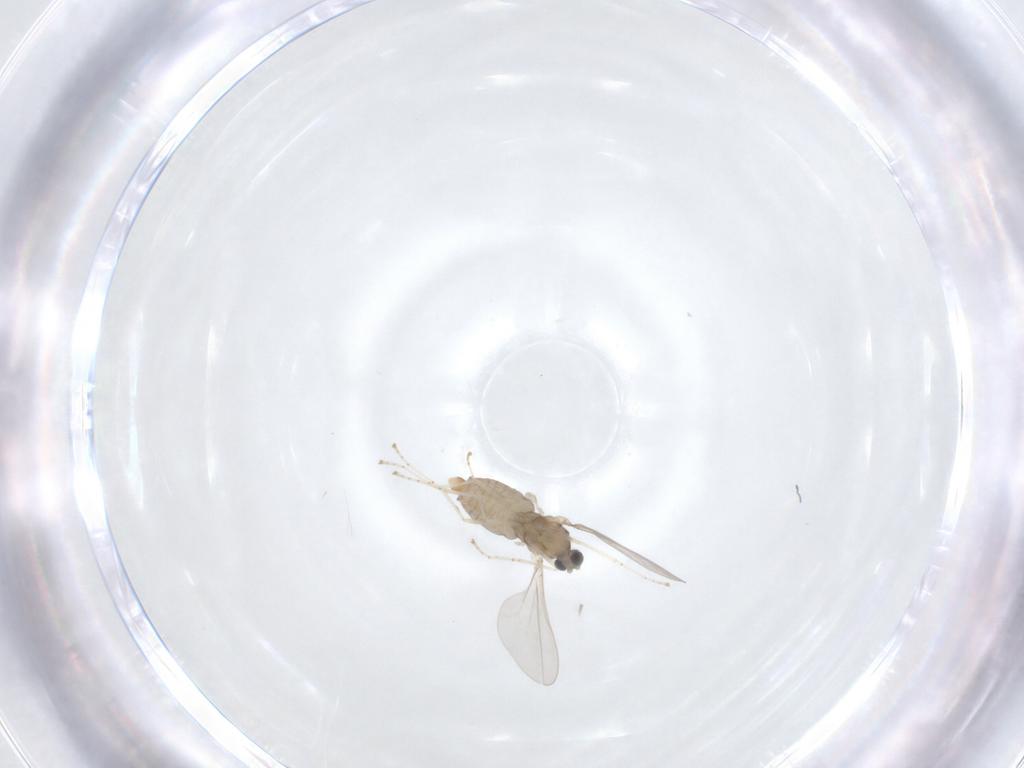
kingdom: Animalia
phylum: Arthropoda
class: Insecta
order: Diptera
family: Cecidomyiidae
